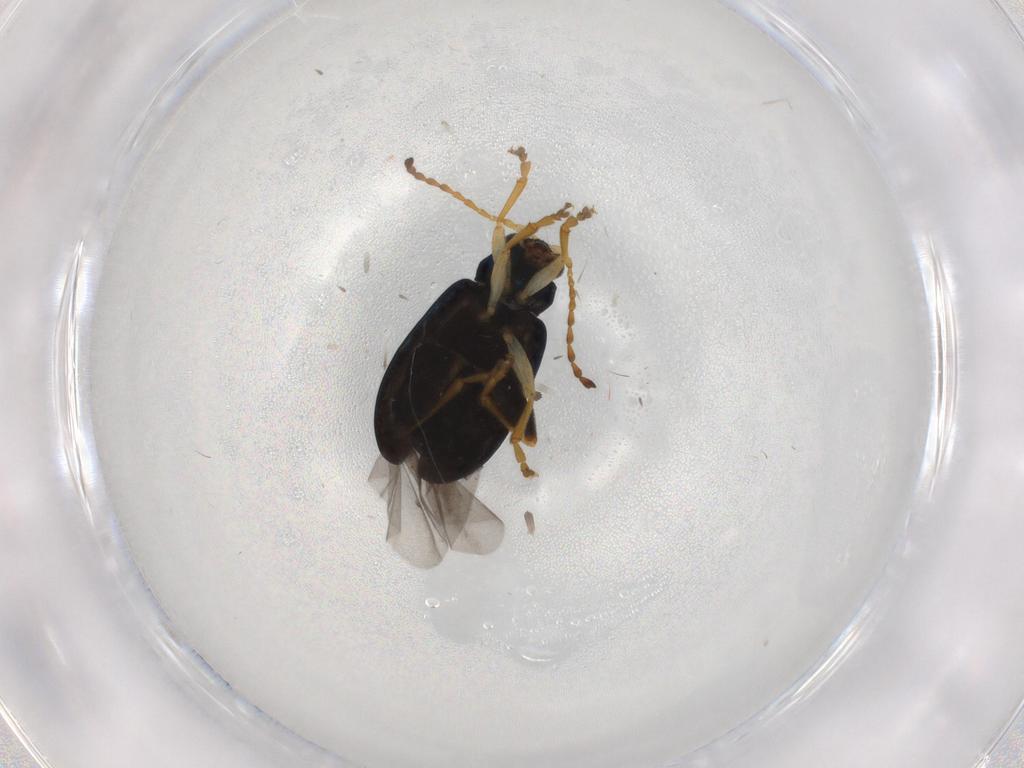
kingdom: Animalia
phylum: Arthropoda
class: Insecta
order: Coleoptera
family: Chrysomelidae
